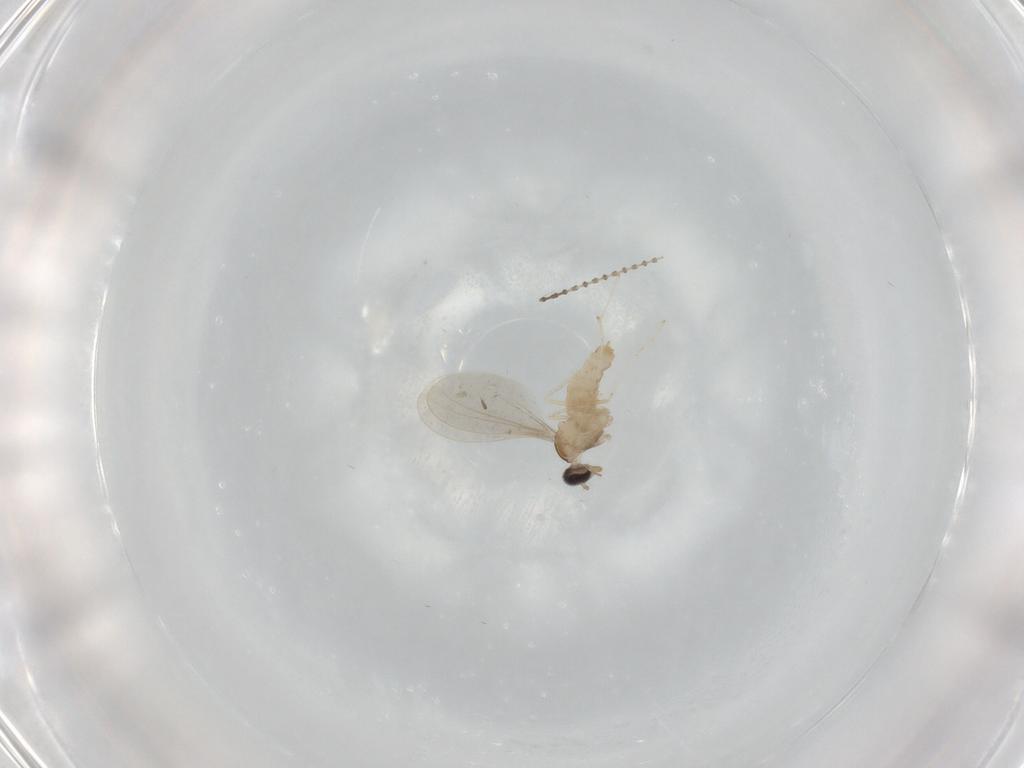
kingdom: Animalia
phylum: Arthropoda
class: Insecta
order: Diptera
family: Cecidomyiidae
